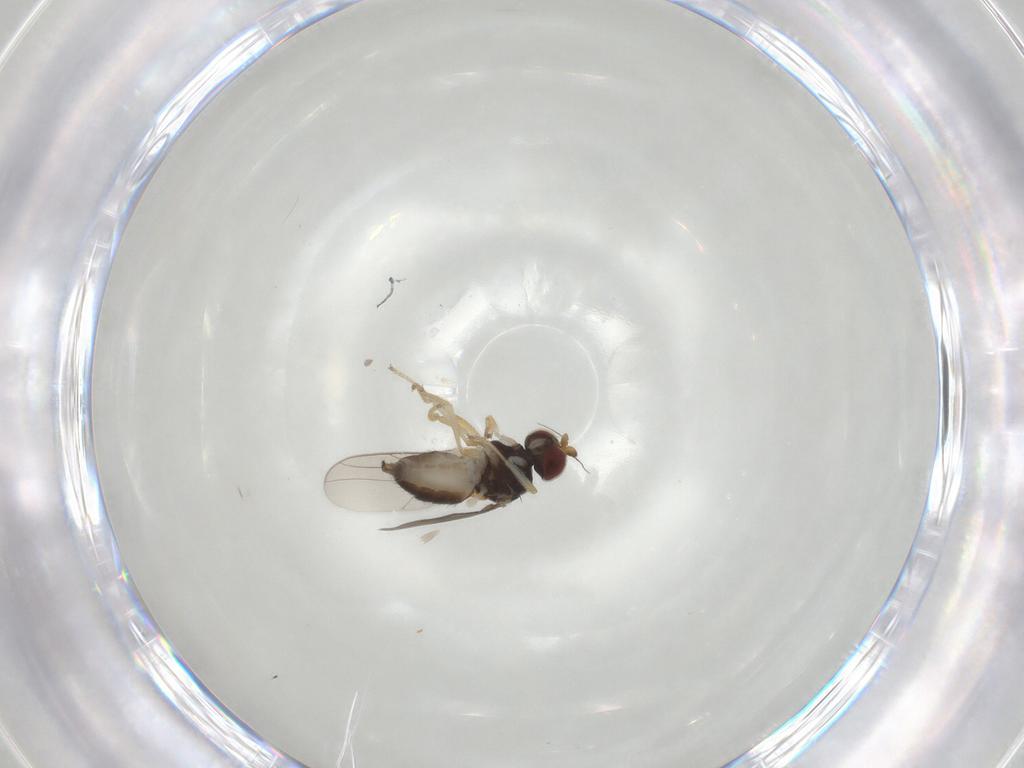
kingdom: Animalia
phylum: Arthropoda
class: Insecta
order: Diptera
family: Chloropidae
